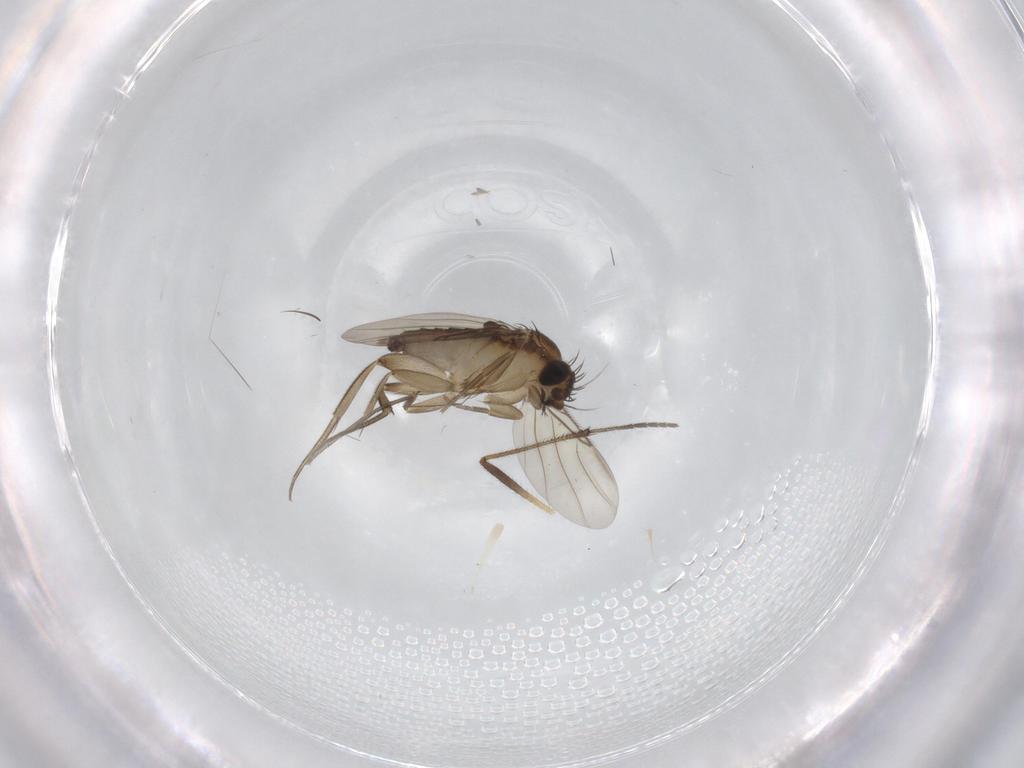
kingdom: Animalia
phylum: Arthropoda
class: Insecta
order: Diptera
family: Phoridae
